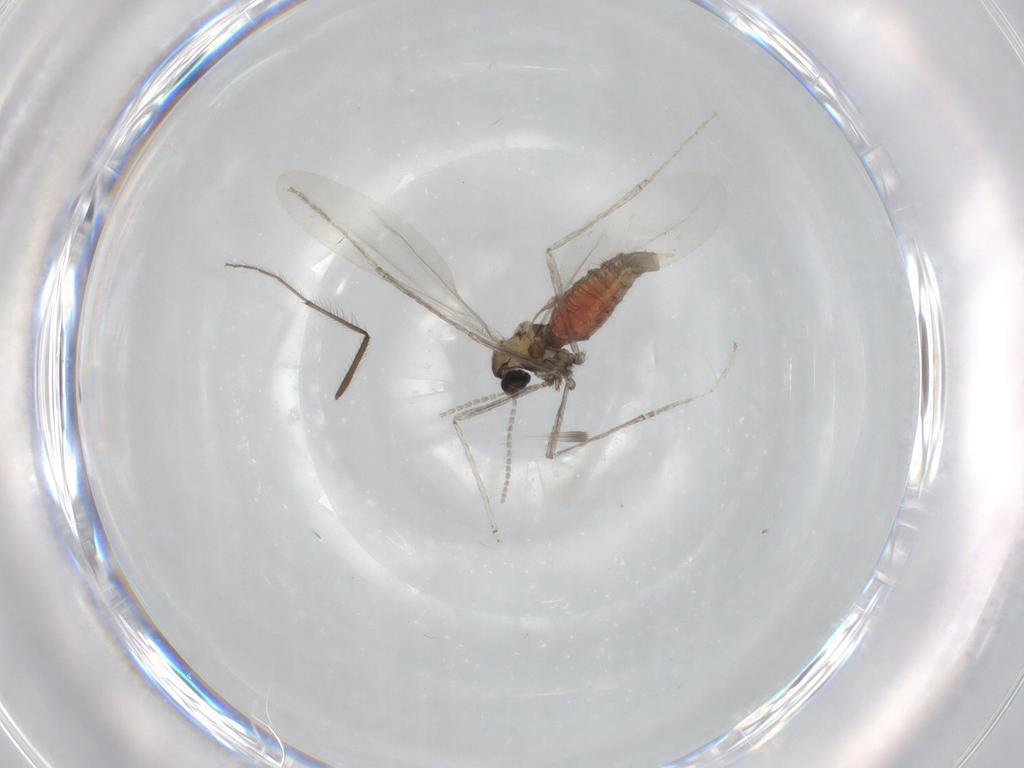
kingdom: Animalia
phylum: Arthropoda
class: Insecta
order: Diptera
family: Cecidomyiidae
